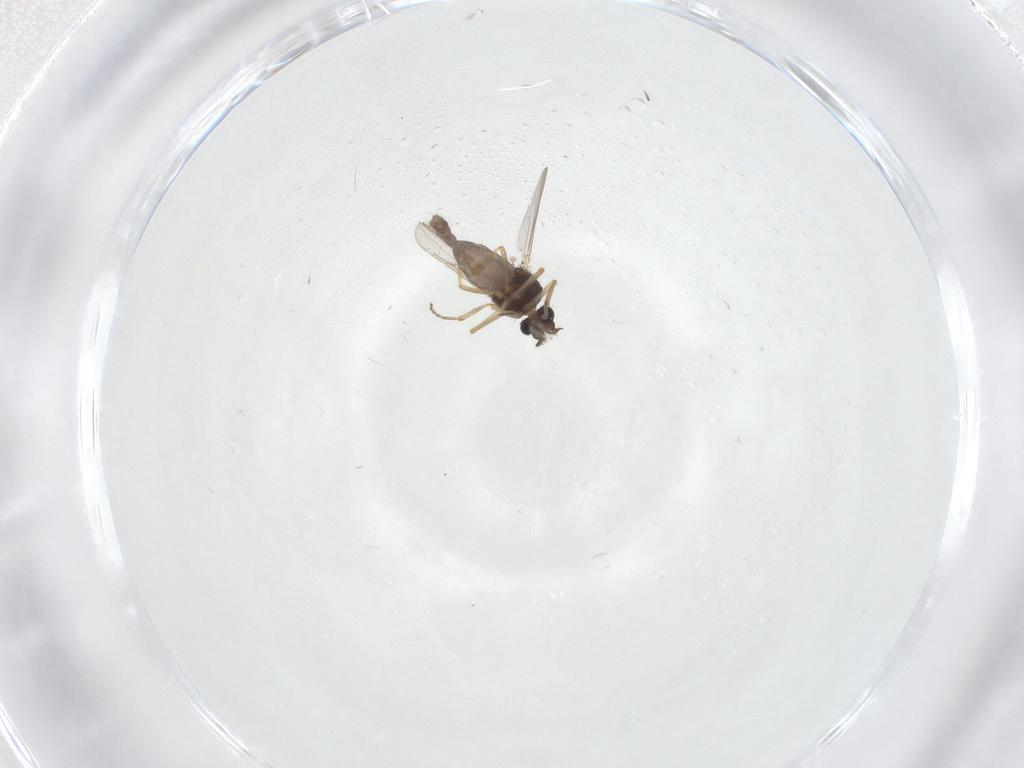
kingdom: Animalia
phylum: Arthropoda
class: Insecta
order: Diptera
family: Ceratopogonidae
